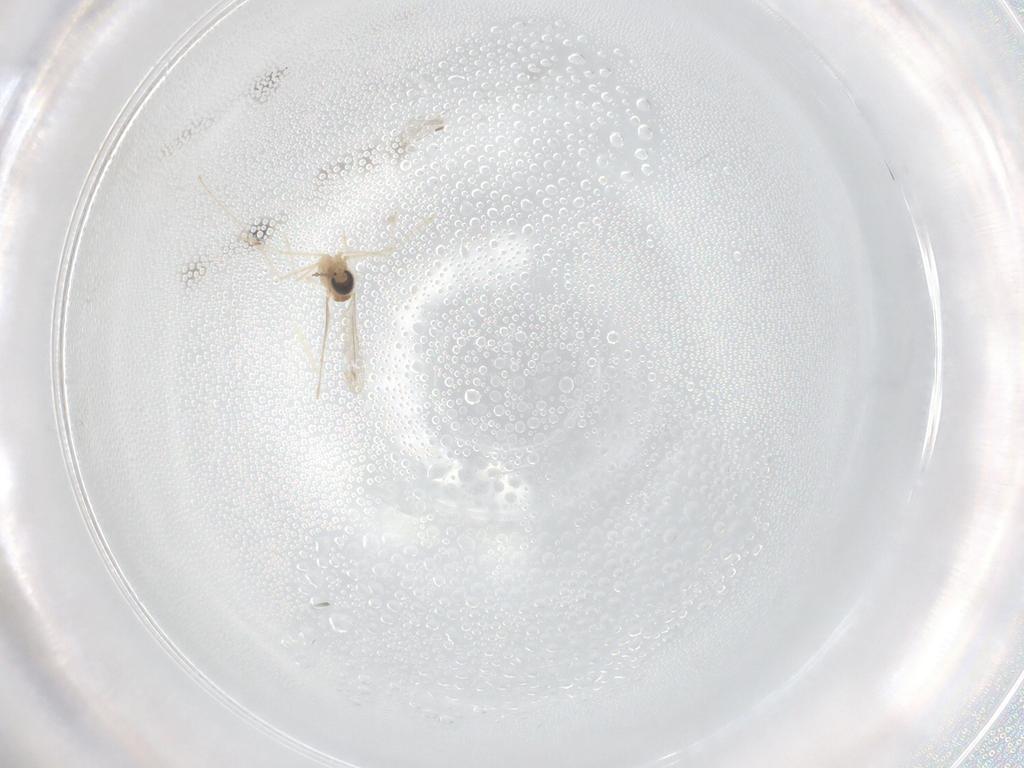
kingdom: Animalia
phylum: Arthropoda
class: Insecta
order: Diptera
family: Cecidomyiidae
